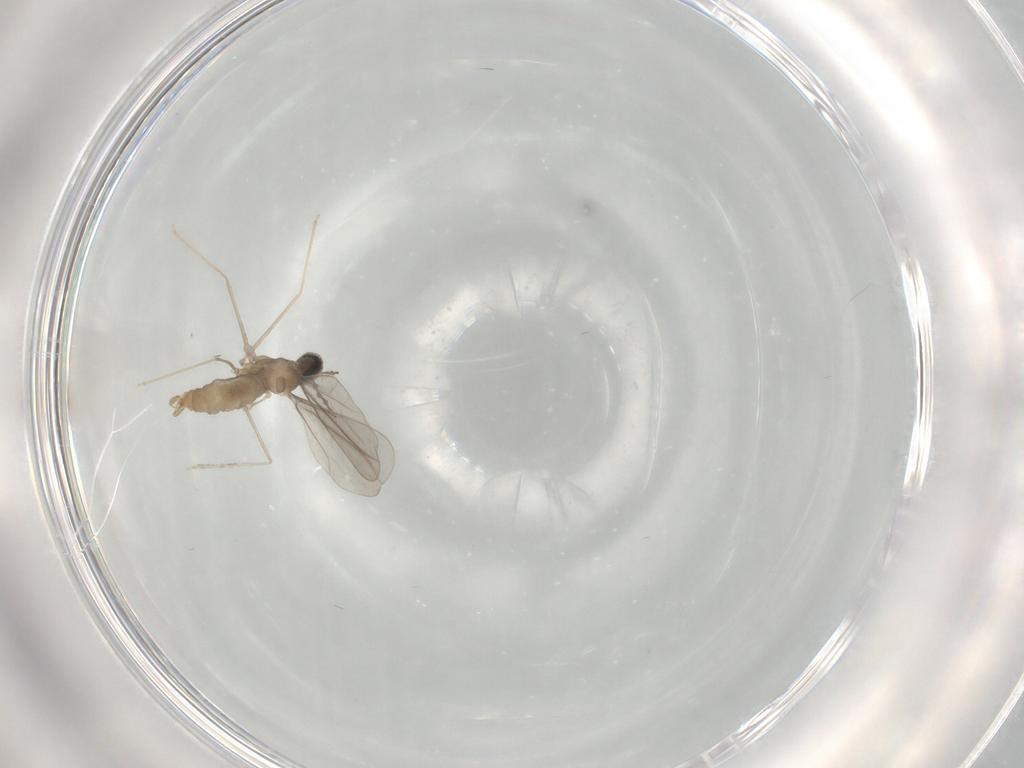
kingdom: Animalia
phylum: Arthropoda
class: Insecta
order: Diptera
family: Cecidomyiidae
